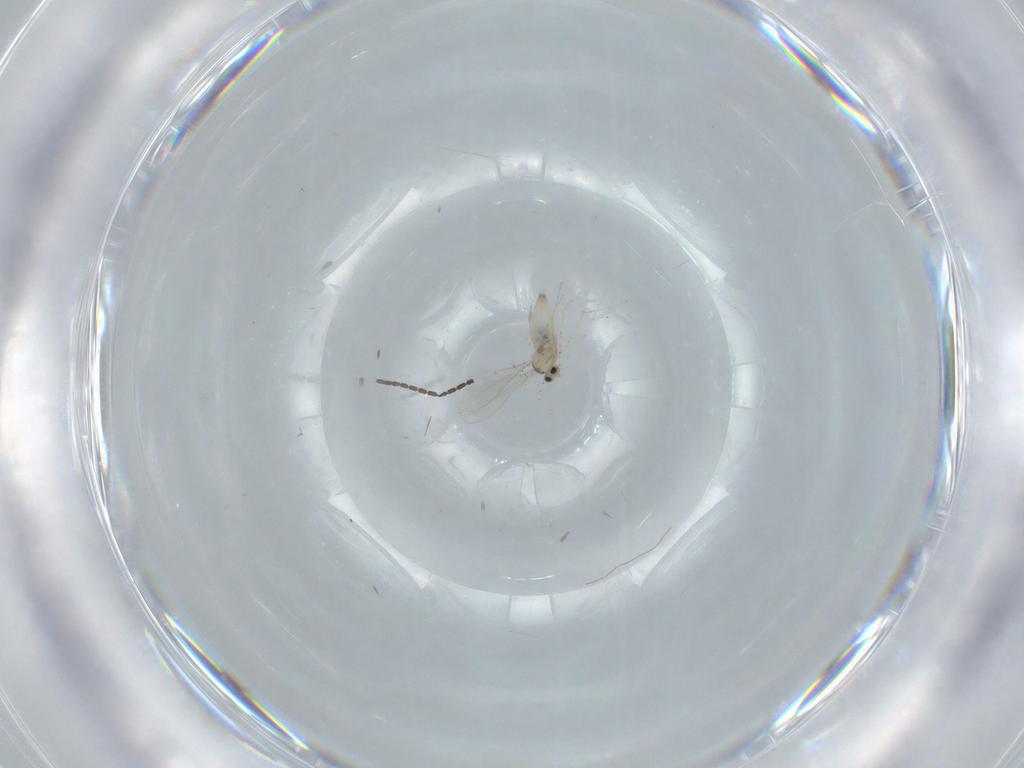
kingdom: Animalia
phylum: Arthropoda
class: Insecta
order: Diptera
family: Cecidomyiidae
